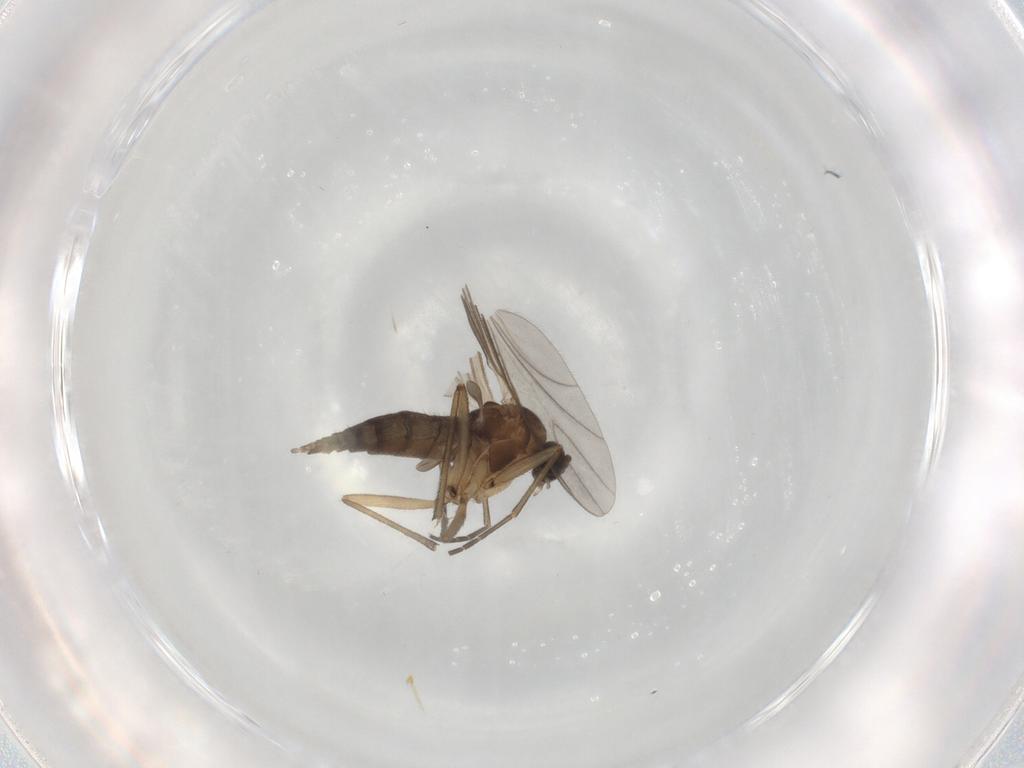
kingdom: Animalia
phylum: Arthropoda
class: Insecta
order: Diptera
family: Sciaridae
